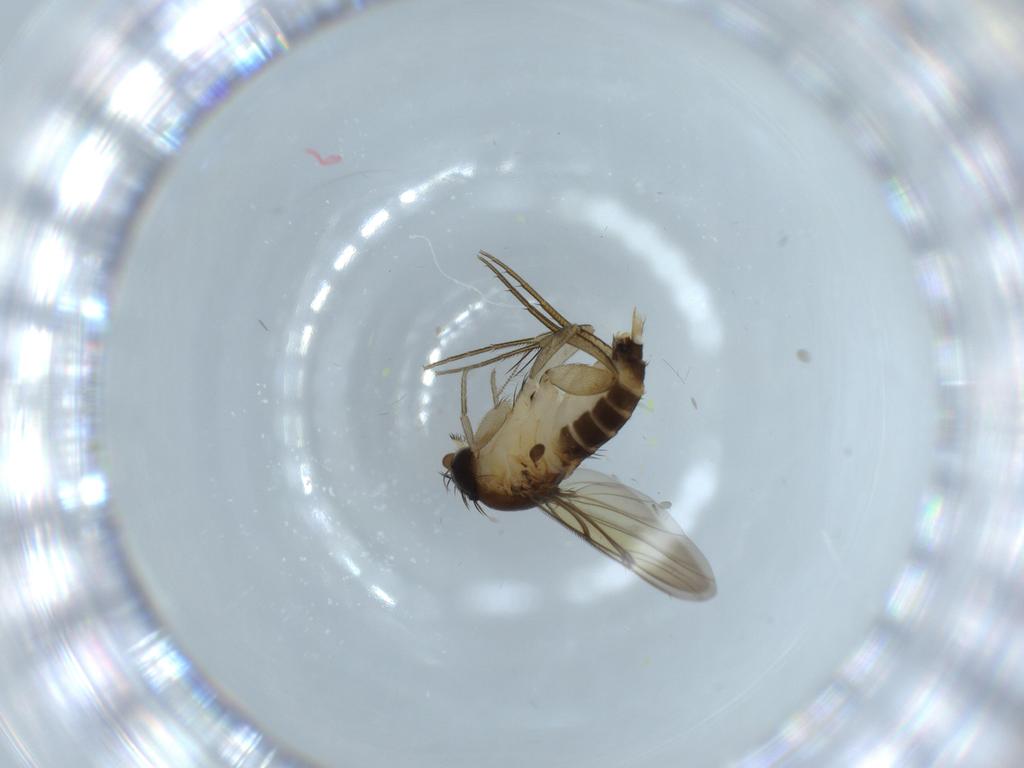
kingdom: Animalia
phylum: Arthropoda
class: Insecta
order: Diptera
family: Phoridae
